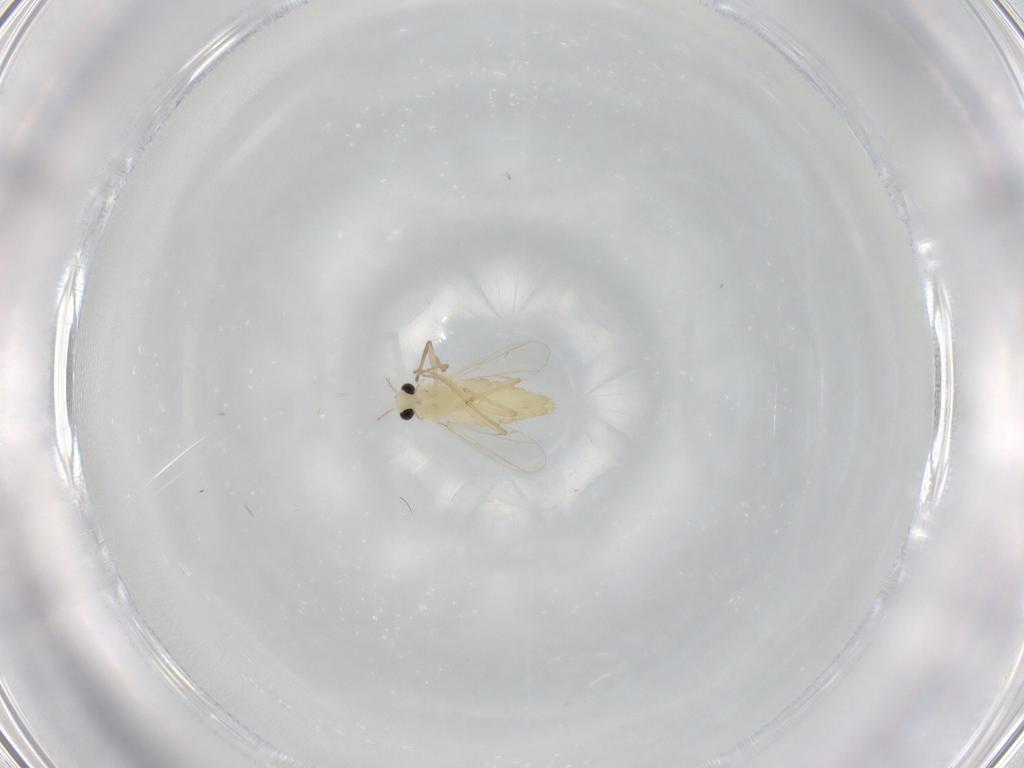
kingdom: Animalia
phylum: Arthropoda
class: Insecta
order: Diptera
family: Chironomidae
